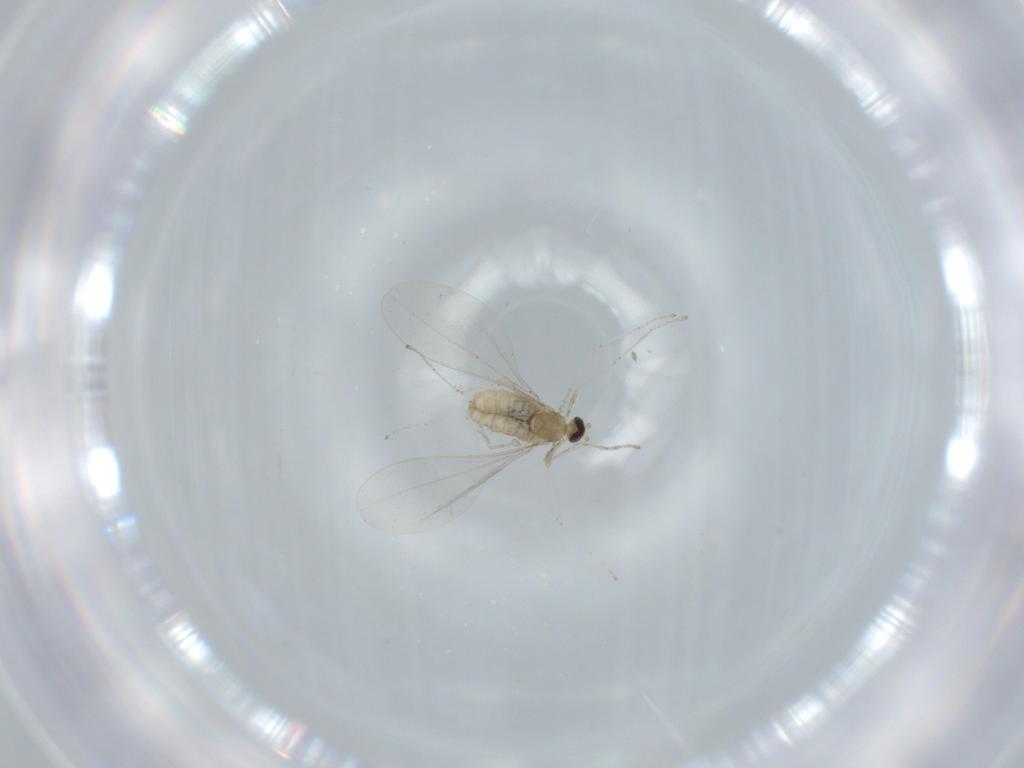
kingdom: Animalia
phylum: Arthropoda
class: Insecta
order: Diptera
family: Cecidomyiidae
